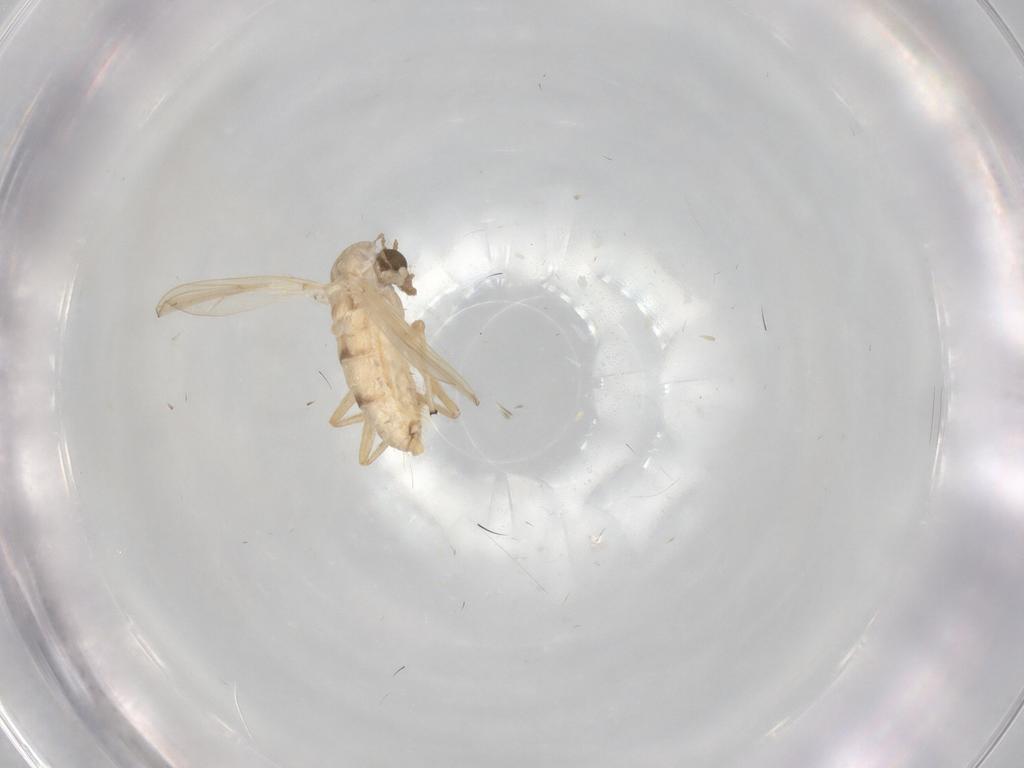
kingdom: Animalia
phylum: Arthropoda
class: Insecta
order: Diptera
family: Chironomidae
